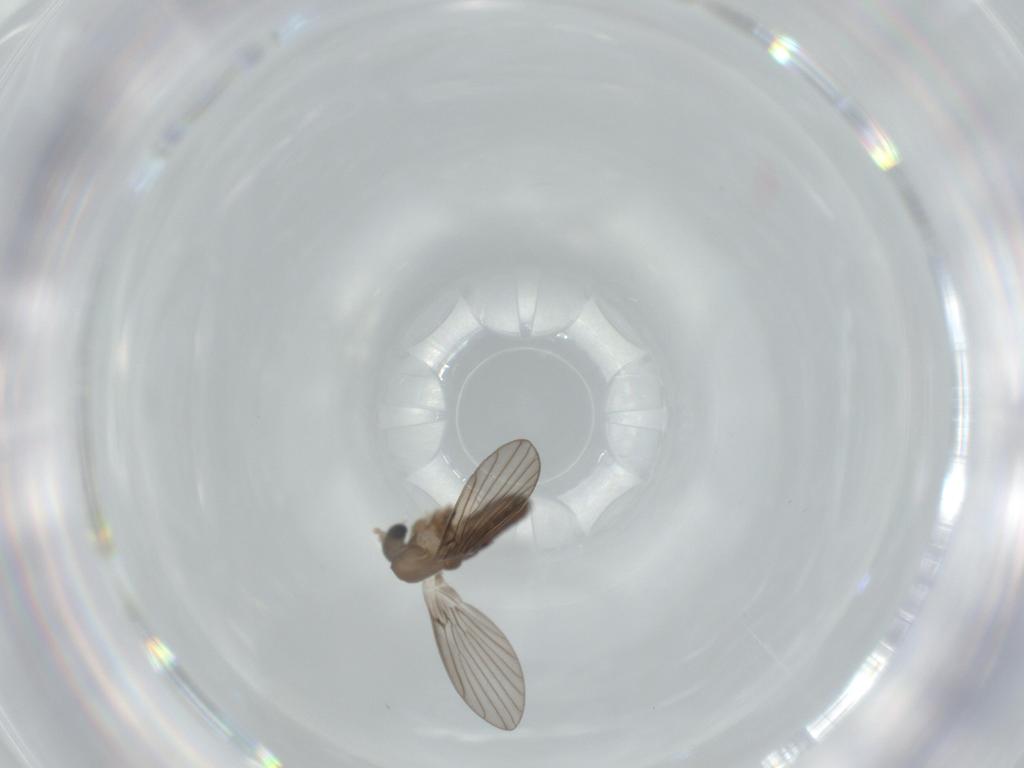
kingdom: Animalia
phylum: Arthropoda
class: Insecta
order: Diptera
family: Psychodidae
